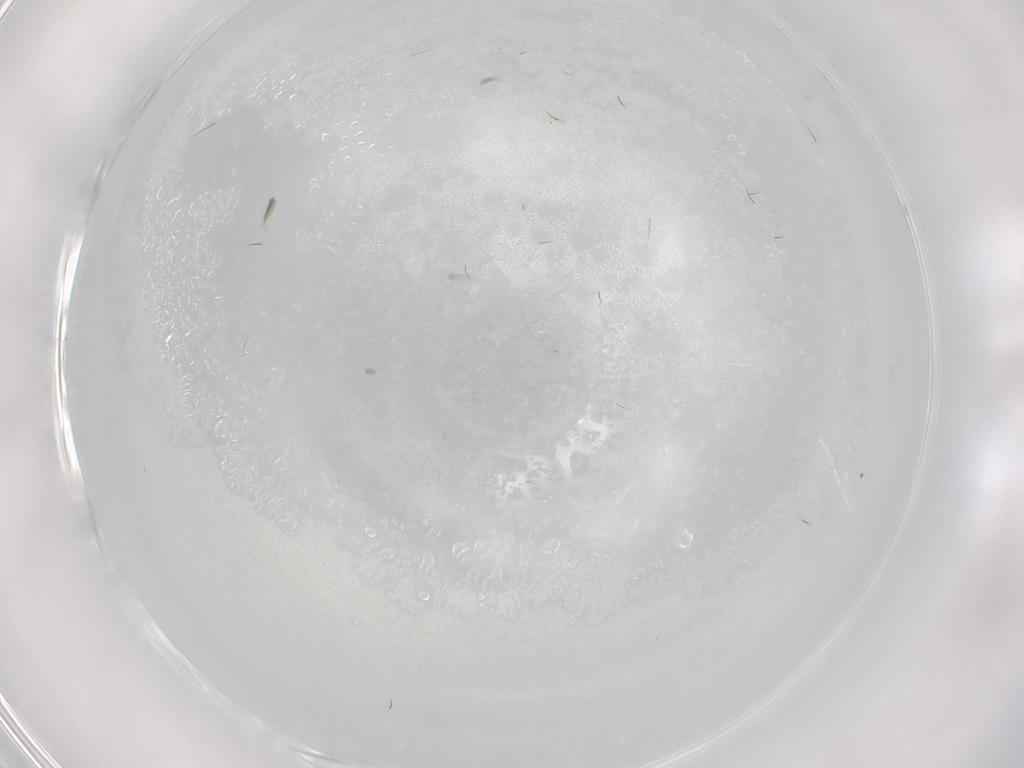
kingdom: Animalia
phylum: Arthropoda
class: Insecta
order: Hymenoptera
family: Platygastridae
